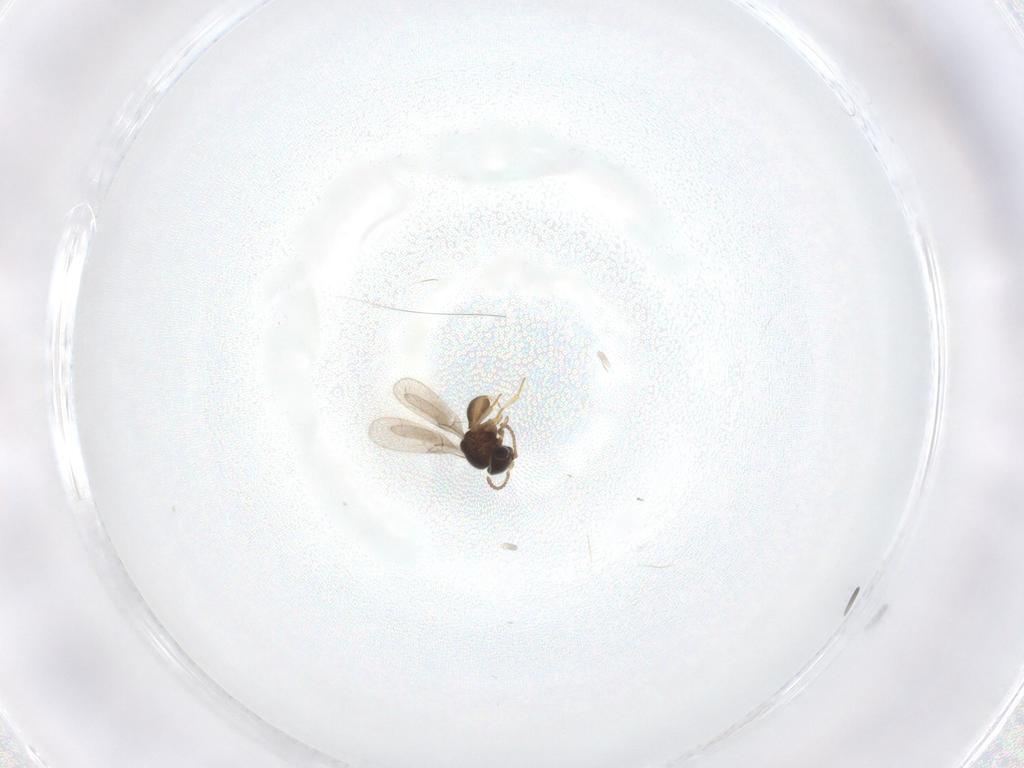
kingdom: Animalia
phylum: Arthropoda
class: Insecta
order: Hymenoptera
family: Scelionidae
